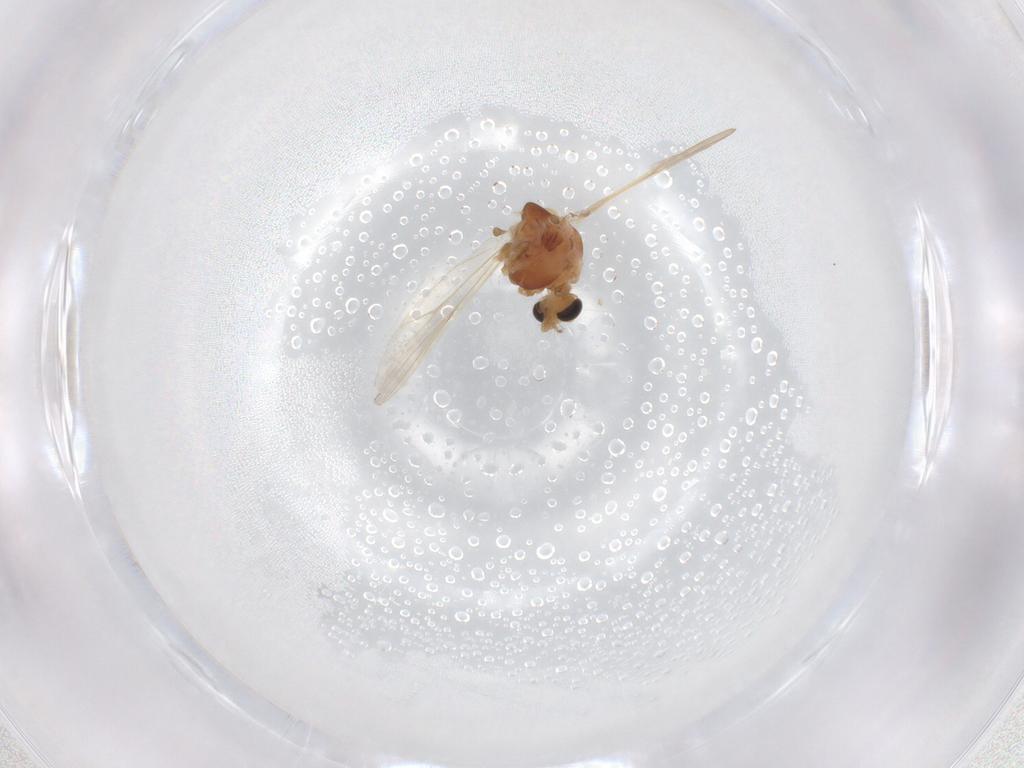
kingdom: Animalia
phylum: Arthropoda
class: Insecta
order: Diptera
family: Chironomidae
